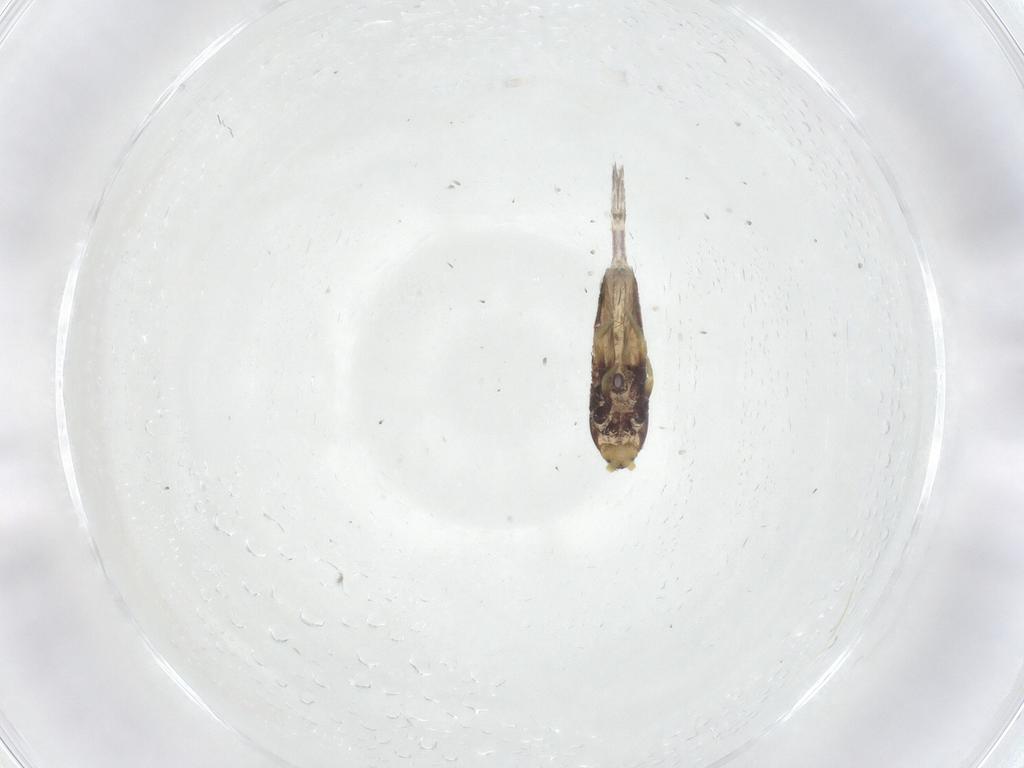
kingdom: Animalia
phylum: Arthropoda
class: Collembola
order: Entomobryomorpha
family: Entomobryidae
